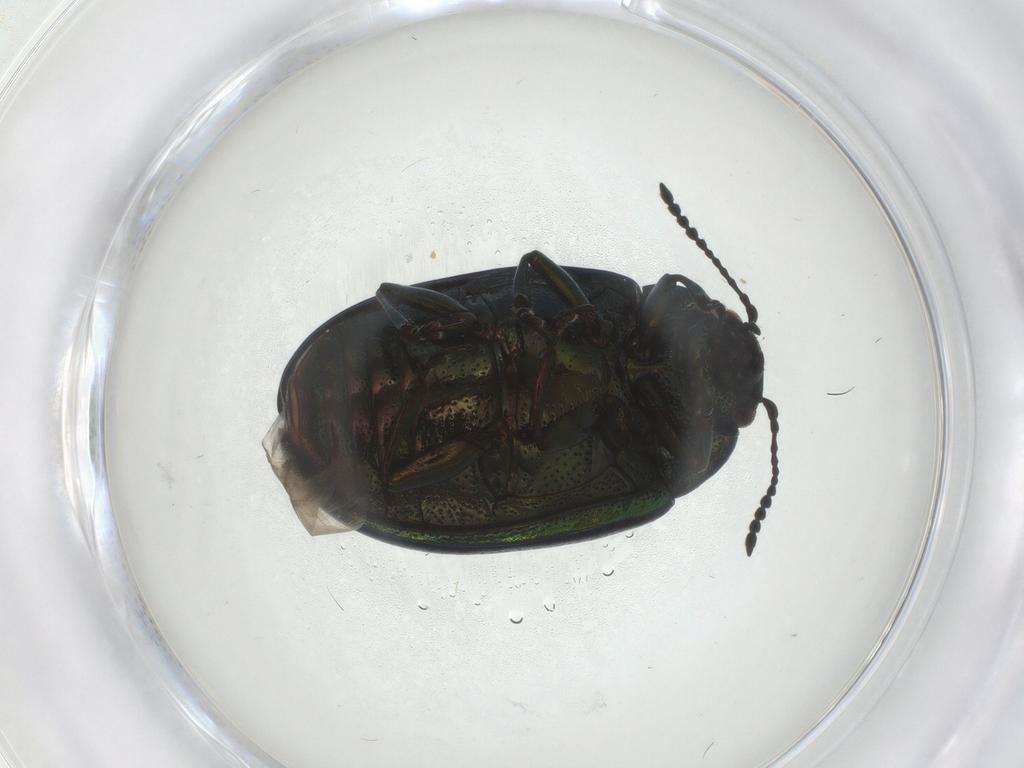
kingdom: Animalia
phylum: Arthropoda
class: Insecta
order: Coleoptera
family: Chrysomelidae
